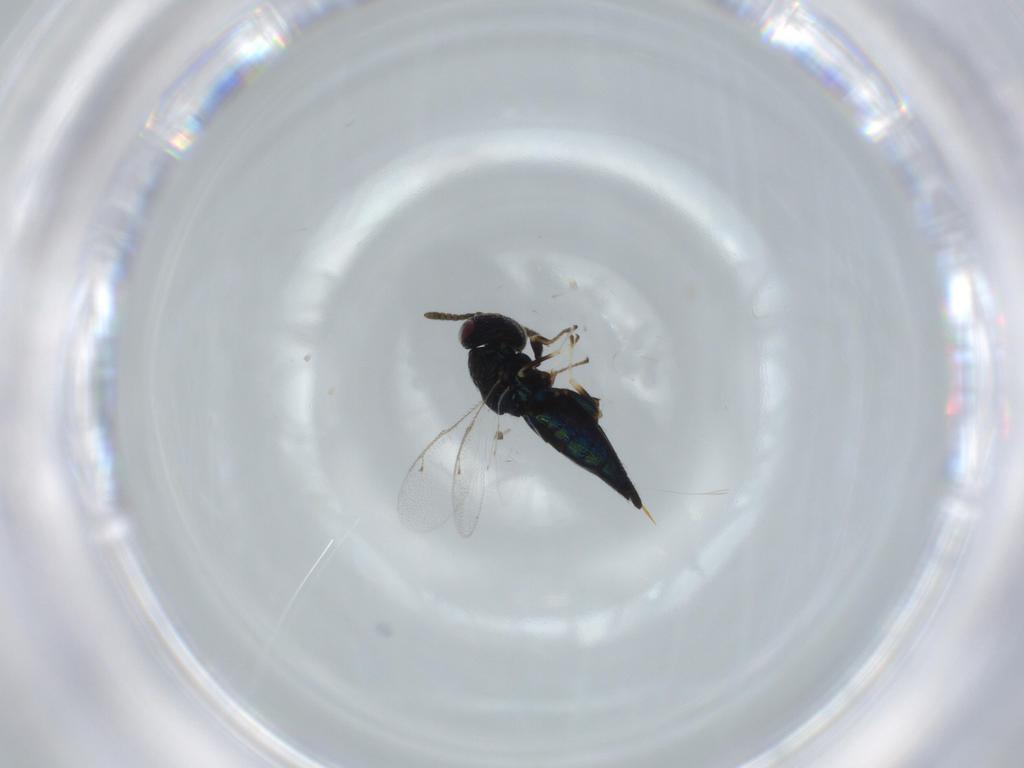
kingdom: Animalia
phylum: Arthropoda
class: Insecta
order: Hymenoptera
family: Pteromalidae
